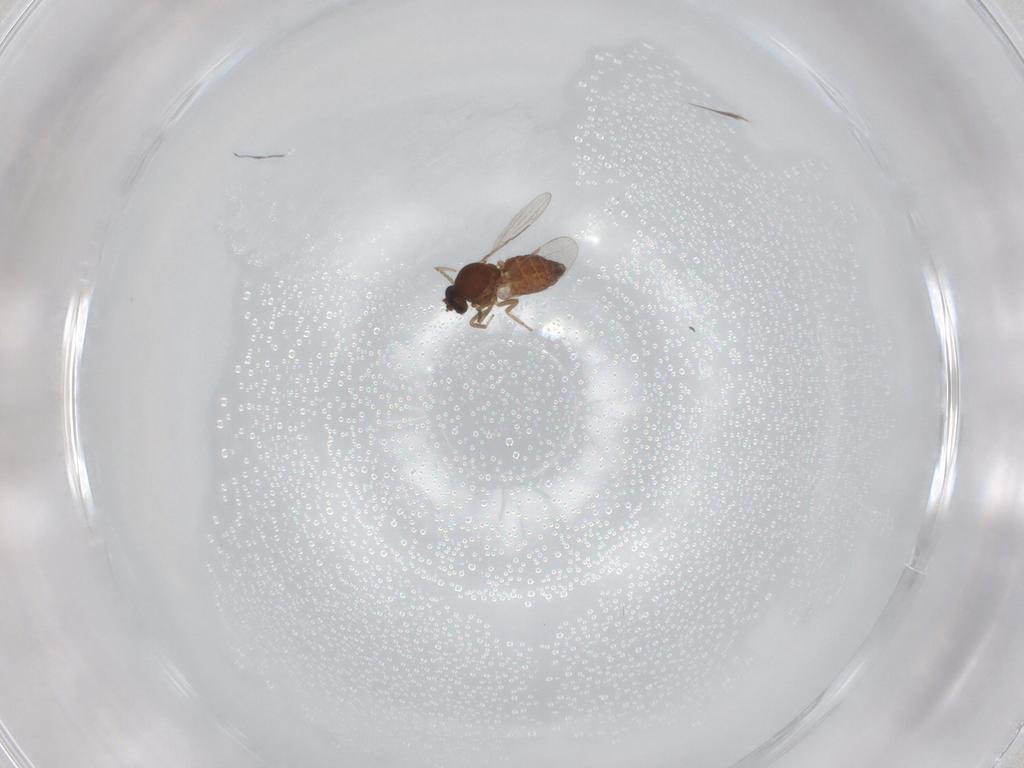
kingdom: Animalia
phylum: Arthropoda
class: Insecta
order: Diptera
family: Ceratopogonidae
